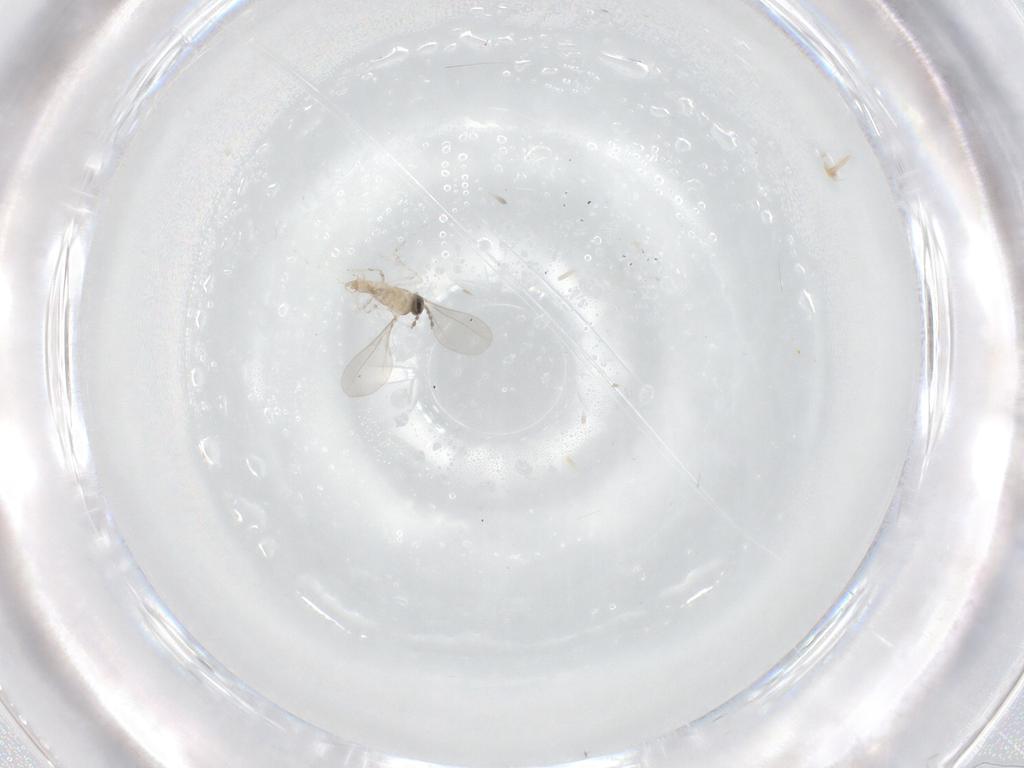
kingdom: Animalia
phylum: Arthropoda
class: Insecta
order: Diptera
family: Cecidomyiidae
